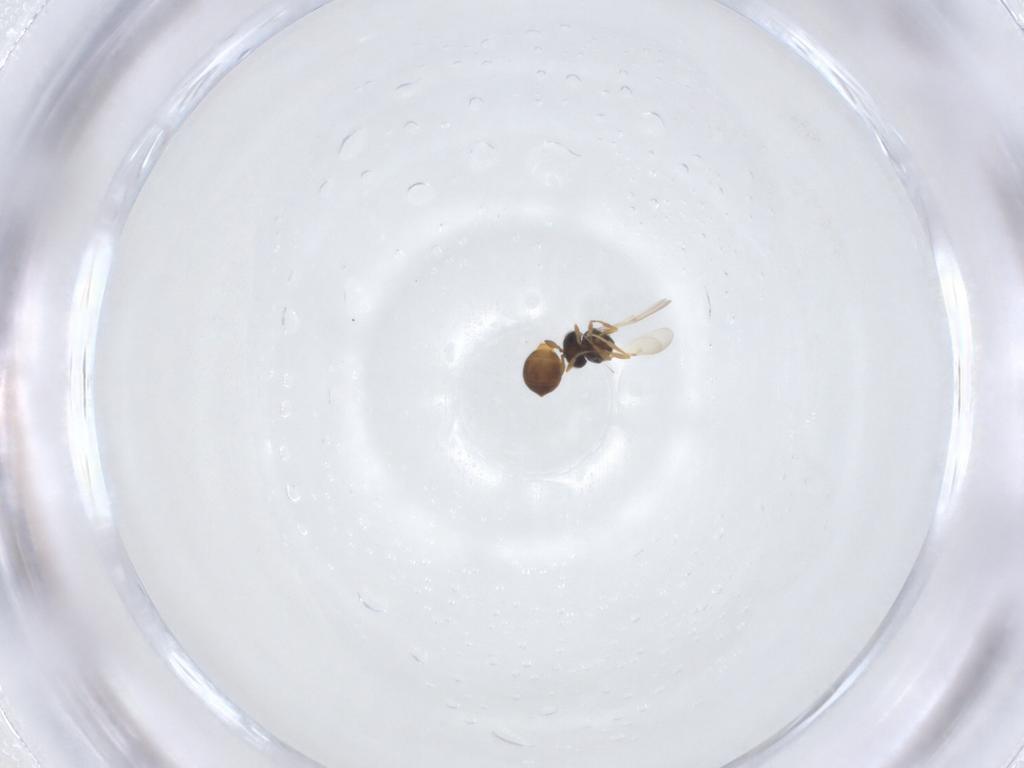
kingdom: Animalia
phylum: Arthropoda
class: Insecta
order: Hymenoptera
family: Scelionidae
